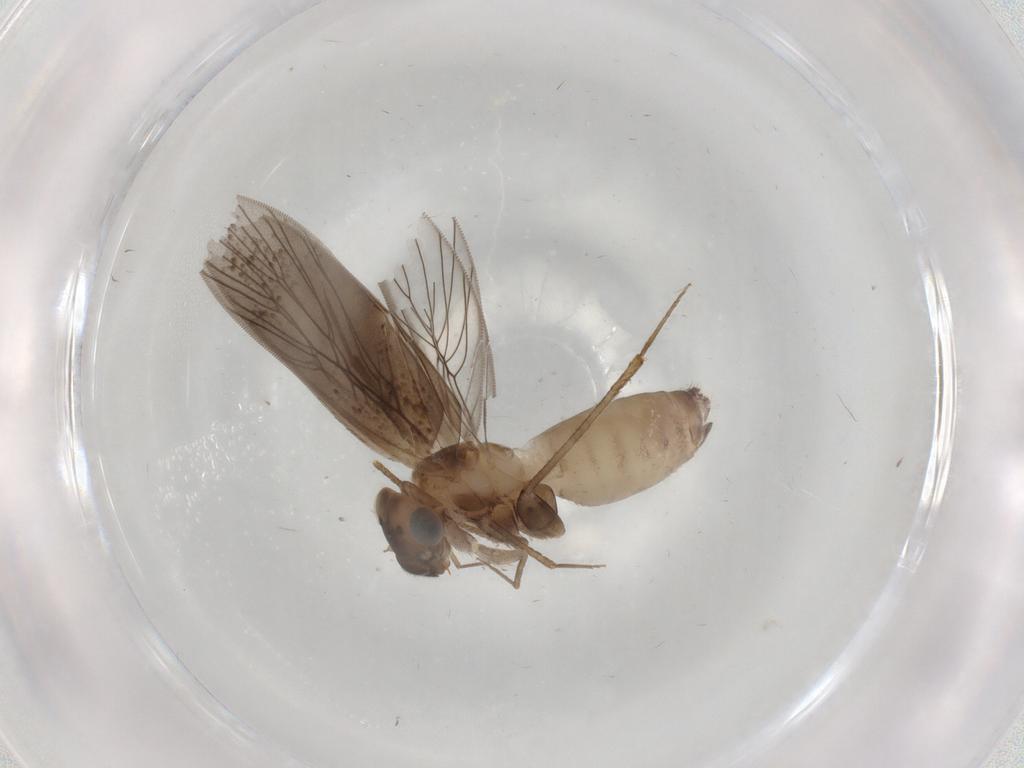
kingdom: Animalia
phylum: Arthropoda
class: Insecta
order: Psocodea
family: Lepidopsocidae
